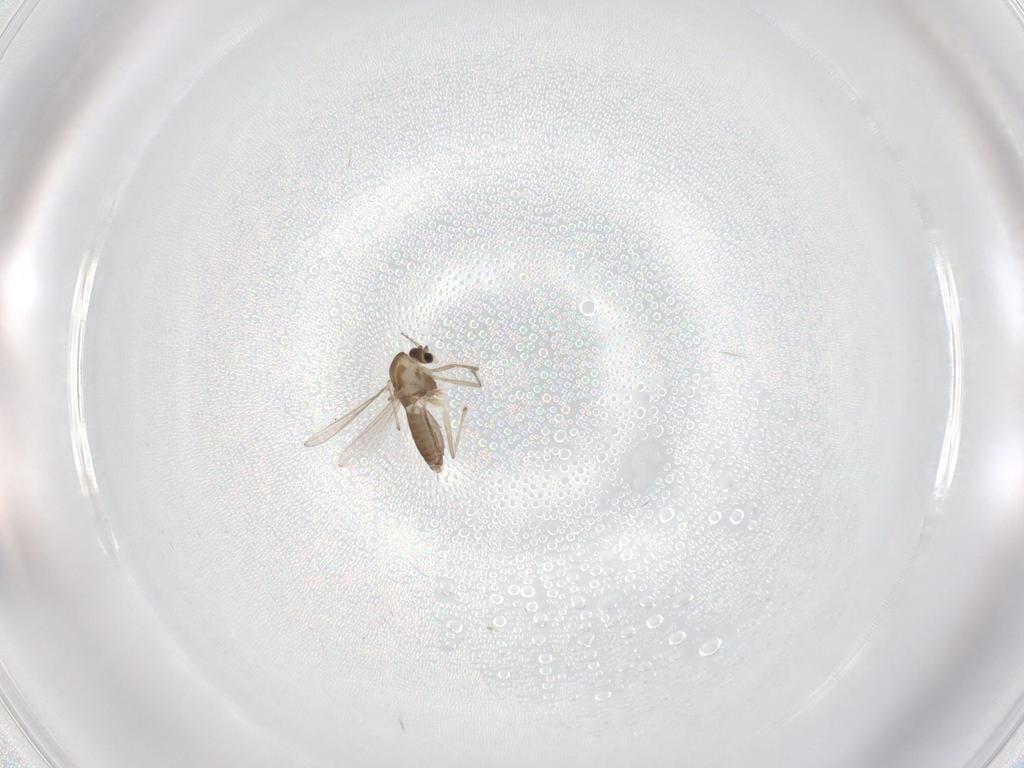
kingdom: Animalia
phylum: Arthropoda
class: Insecta
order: Diptera
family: Chironomidae
